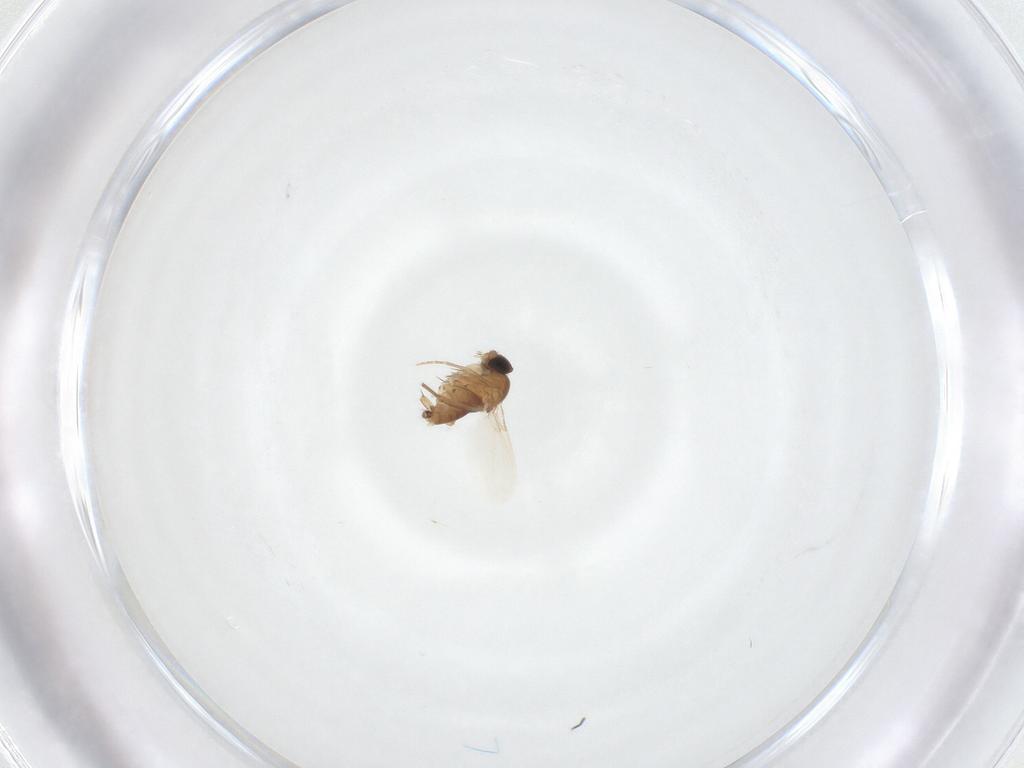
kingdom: Animalia
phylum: Arthropoda
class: Insecta
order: Diptera
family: Phoridae
